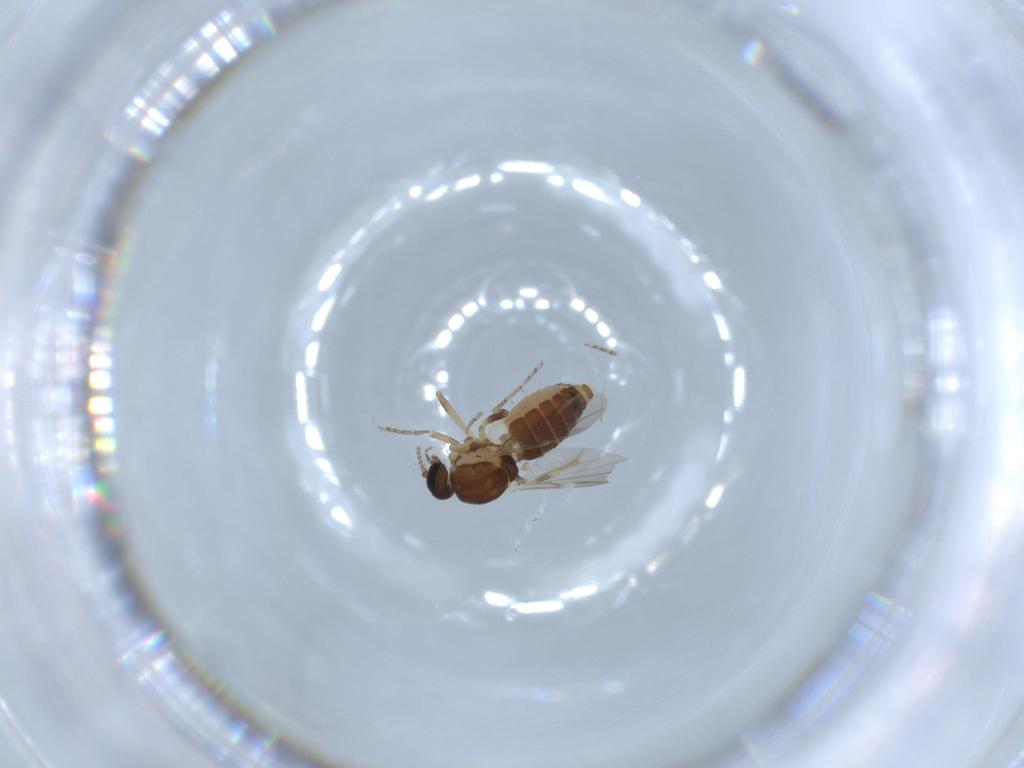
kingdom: Animalia
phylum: Arthropoda
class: Insecta
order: Diptera
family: Ceratopogonidae
